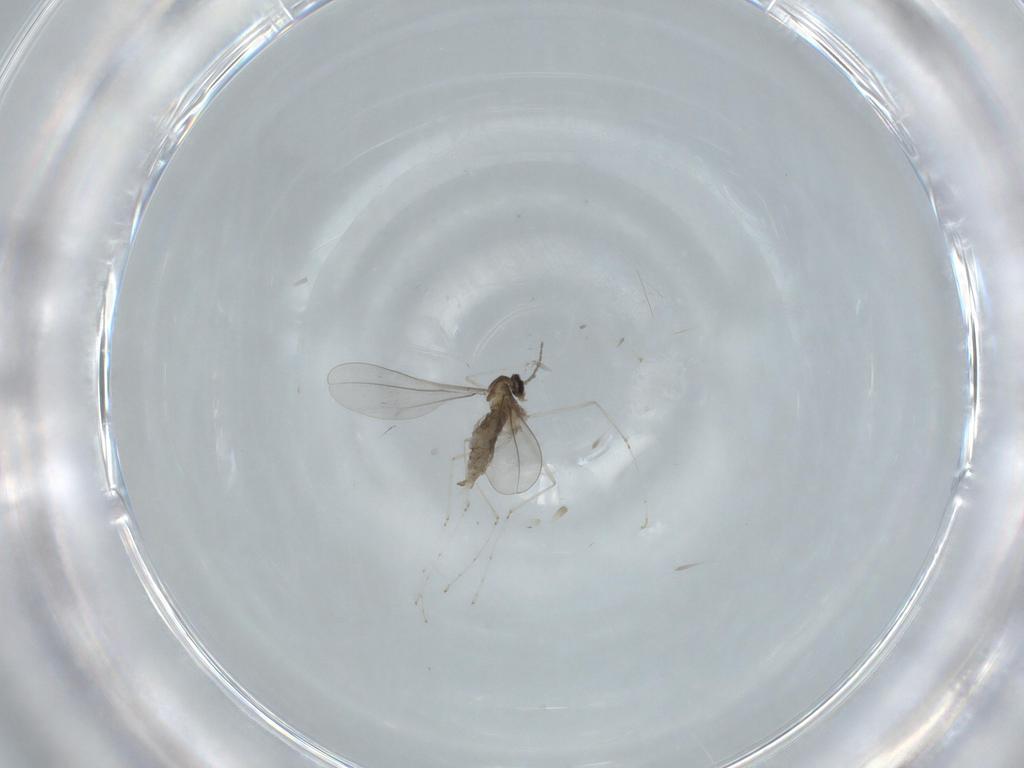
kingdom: Animalia
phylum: Arthropoda
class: Insecta
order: Diptera
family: Cecidomyiidae
